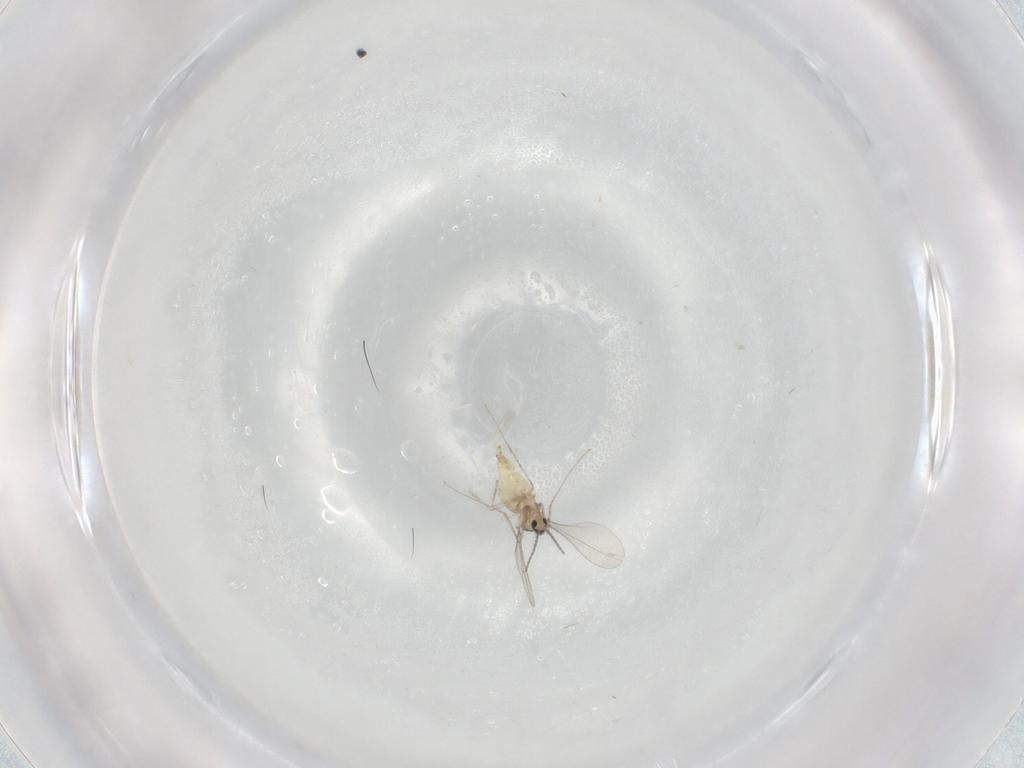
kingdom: Animalia
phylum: Arthropoda
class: Insecta
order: Diptera
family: Cecidomyiidae
